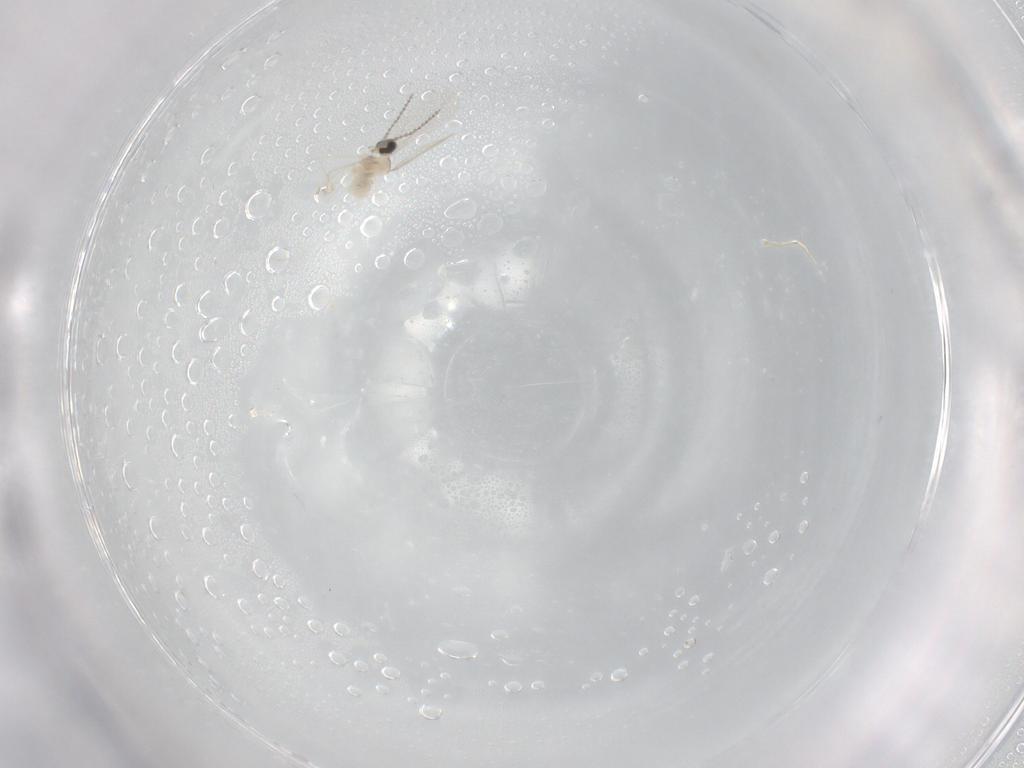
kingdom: Animalia
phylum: Arthropoda
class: Insecta
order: Diptera
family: Cecidomyiidae
